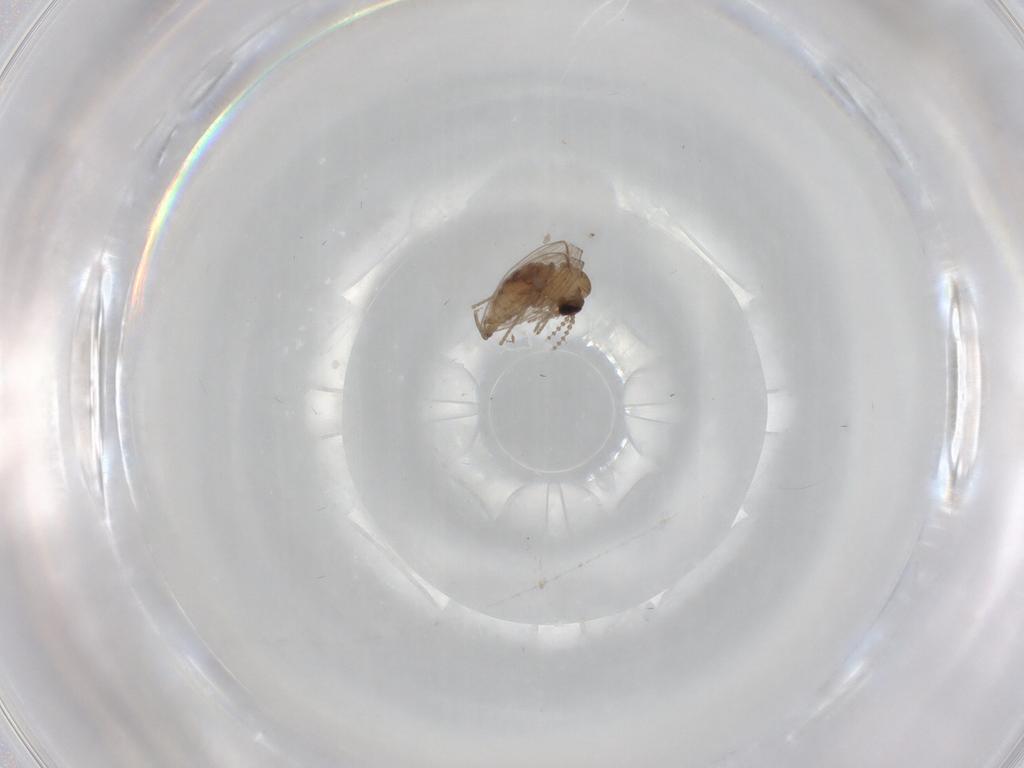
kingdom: Animalia
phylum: Arthropoda
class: Insecta
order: Diptera
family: Psychodidae
